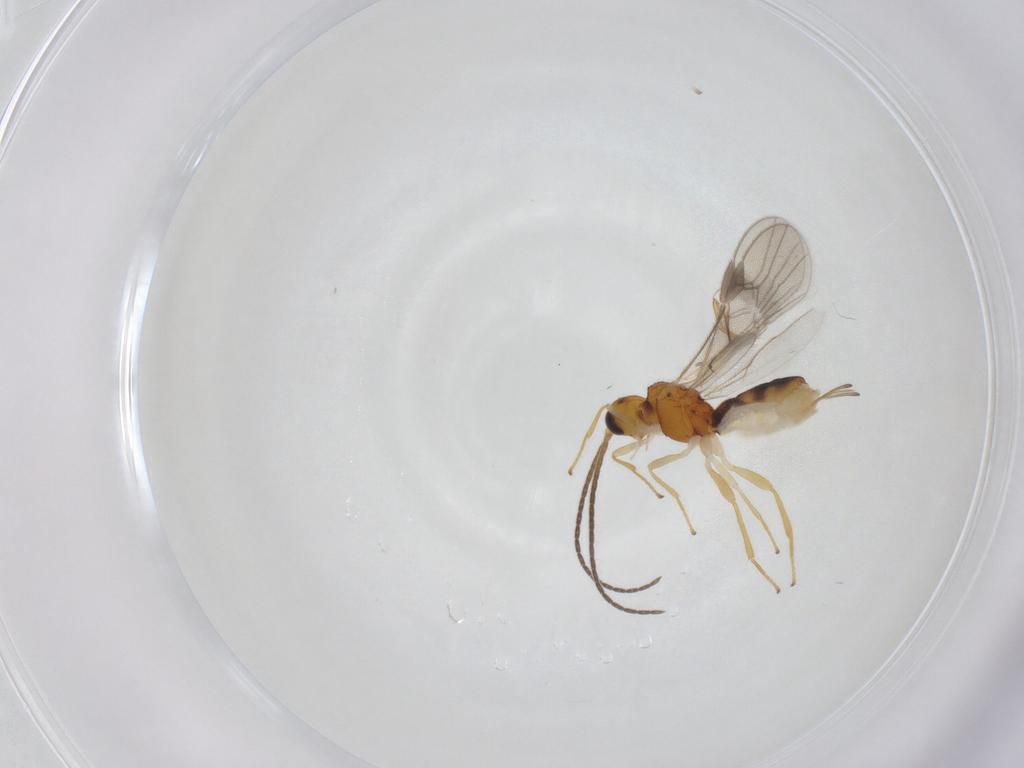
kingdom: Animalia
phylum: Arthropoda
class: Insecta
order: Hymenoptera
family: Braconidae
